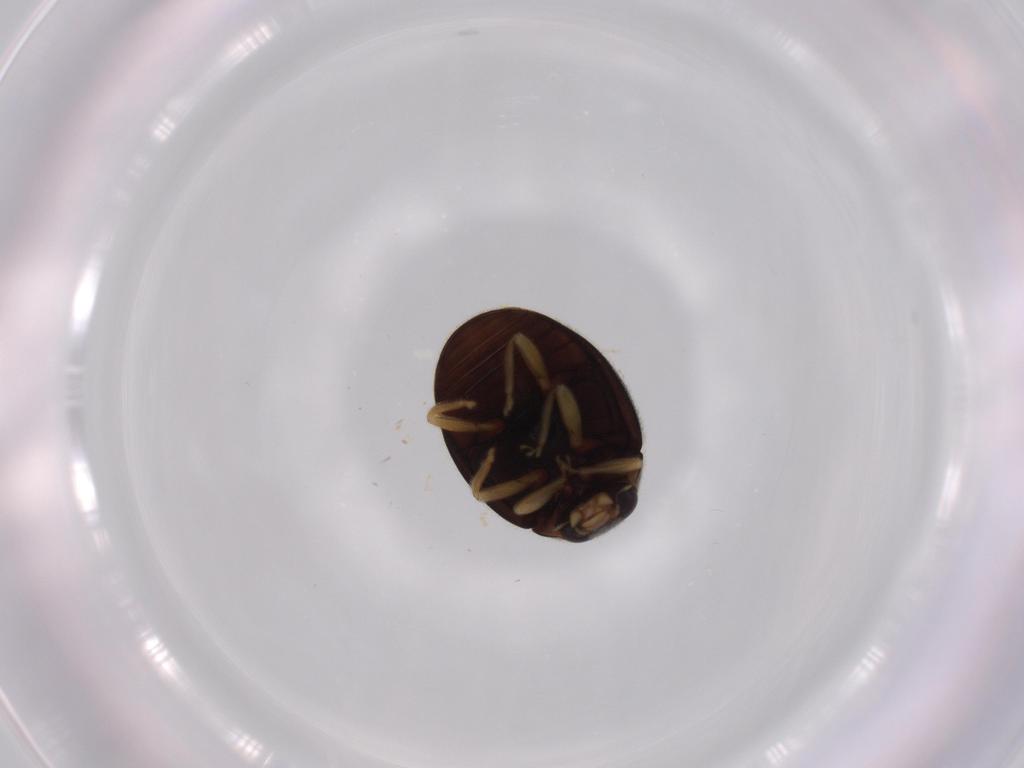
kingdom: Animalia
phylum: Arthropoda
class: Insecta
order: Coleoptera
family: Coccinellidae
